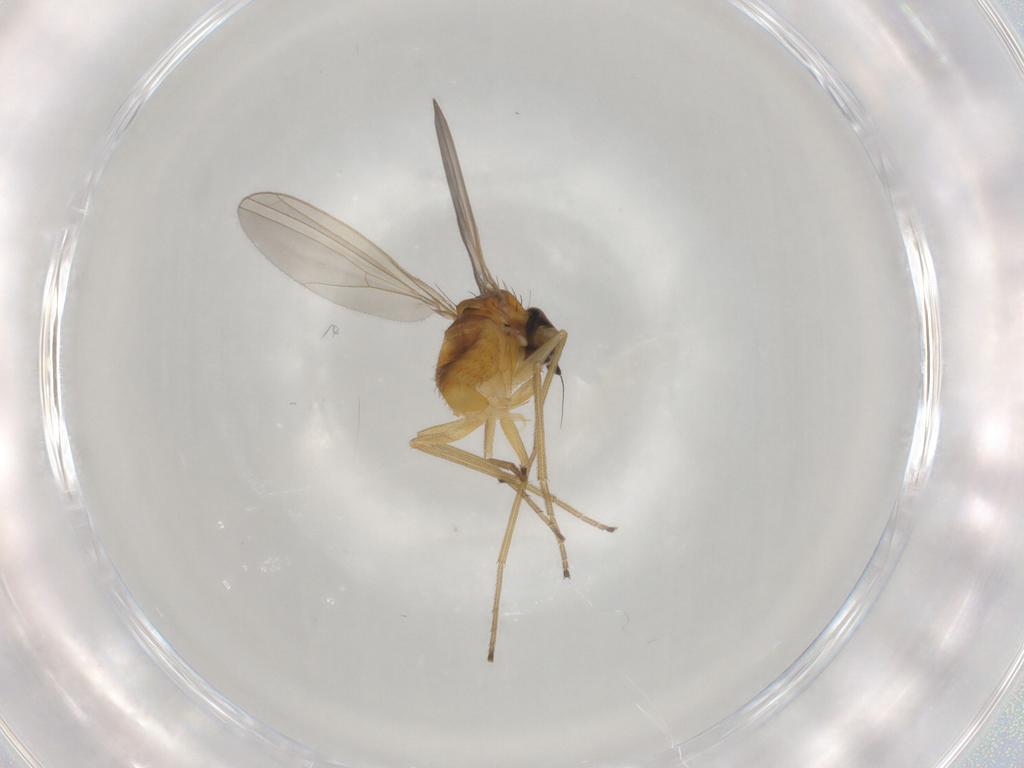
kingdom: Animalia
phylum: Arthropoda
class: Insecta
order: Diptera
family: Dolichopodidae
